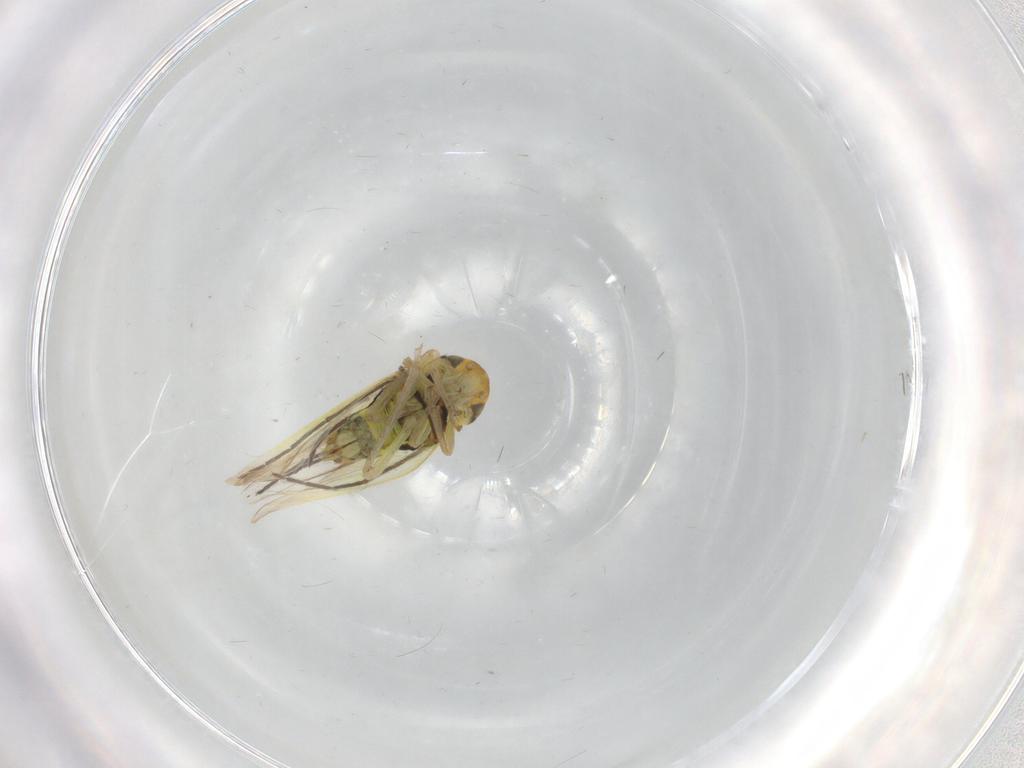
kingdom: Animalia
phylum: Arthropoda
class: Insecta
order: Hemiptera
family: Cicadellidae
